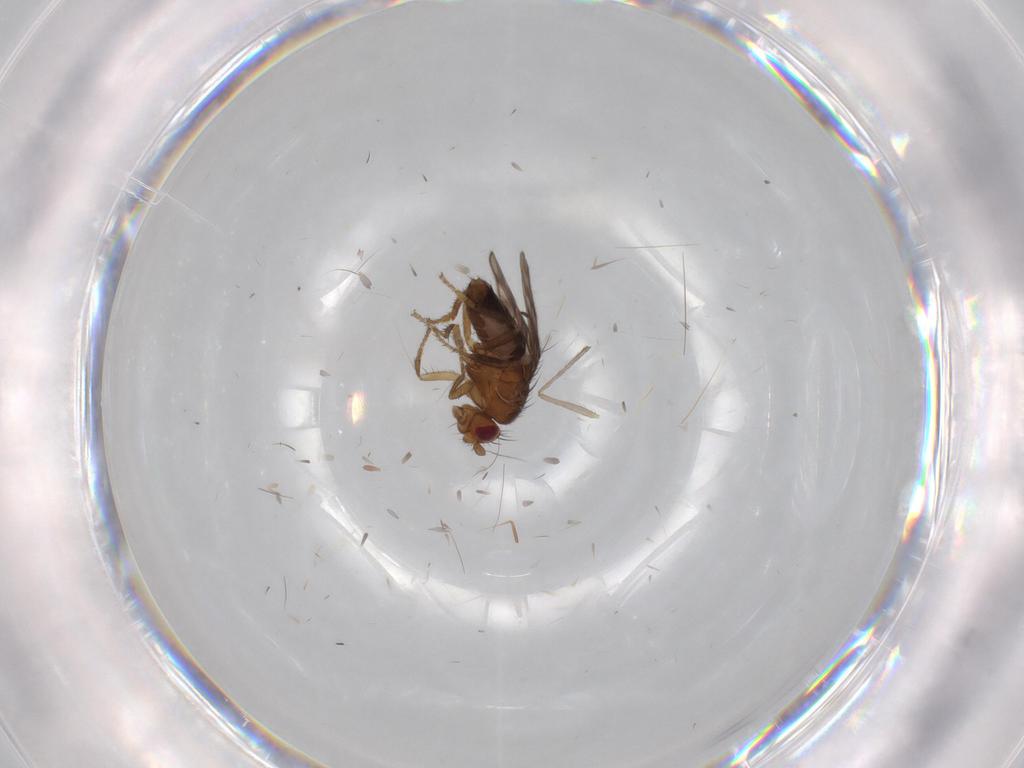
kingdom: Animalia
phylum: Arthropoda
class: Insecta
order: Diptera
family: Sphaeroceridae
